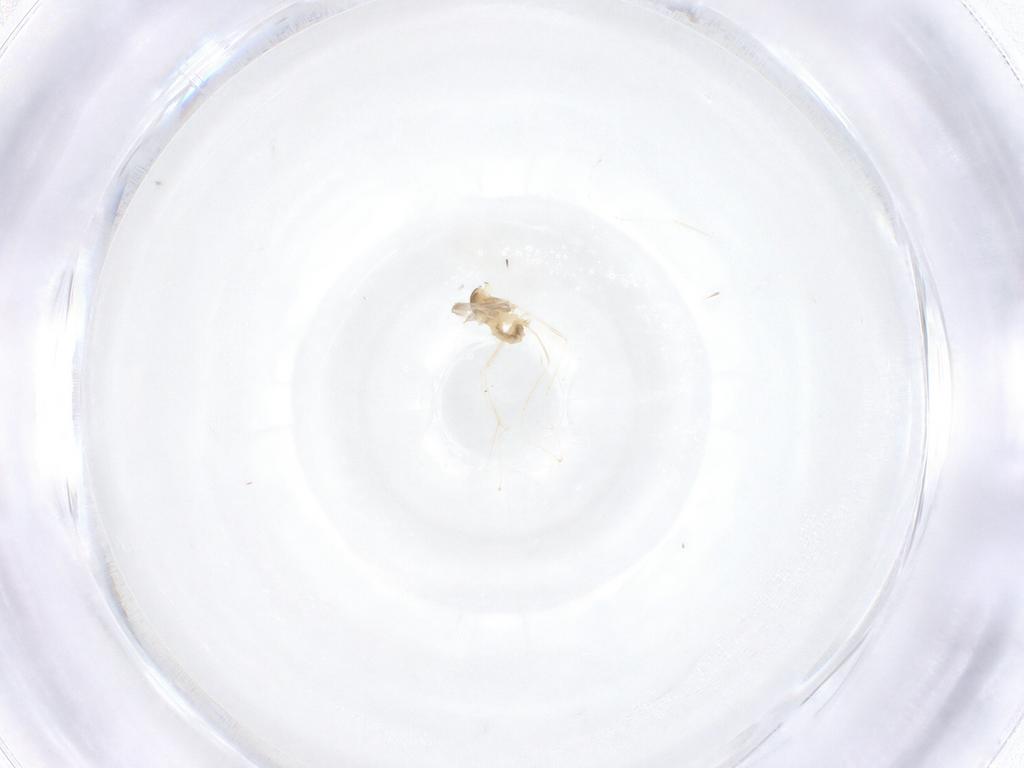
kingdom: Animalia
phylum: Arthropoda
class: Insecta
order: Diptera
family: Cecidomyiidae
